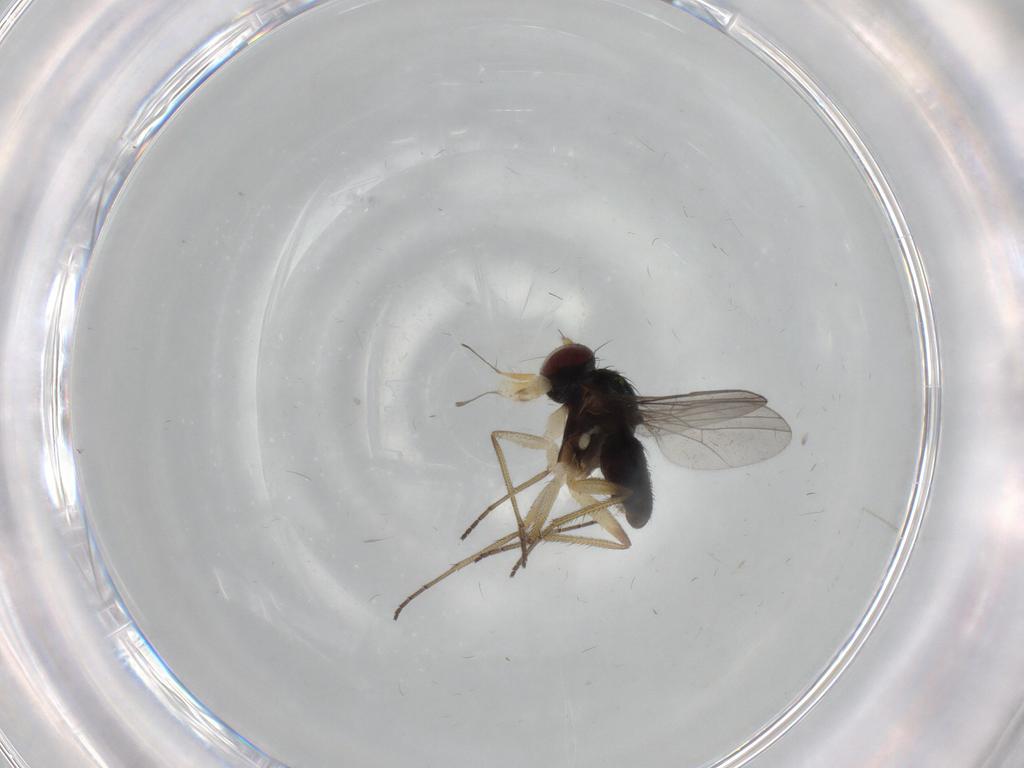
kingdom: Animalia
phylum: Arthropoda
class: Insecta
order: Diptera
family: Dolichopodidae
